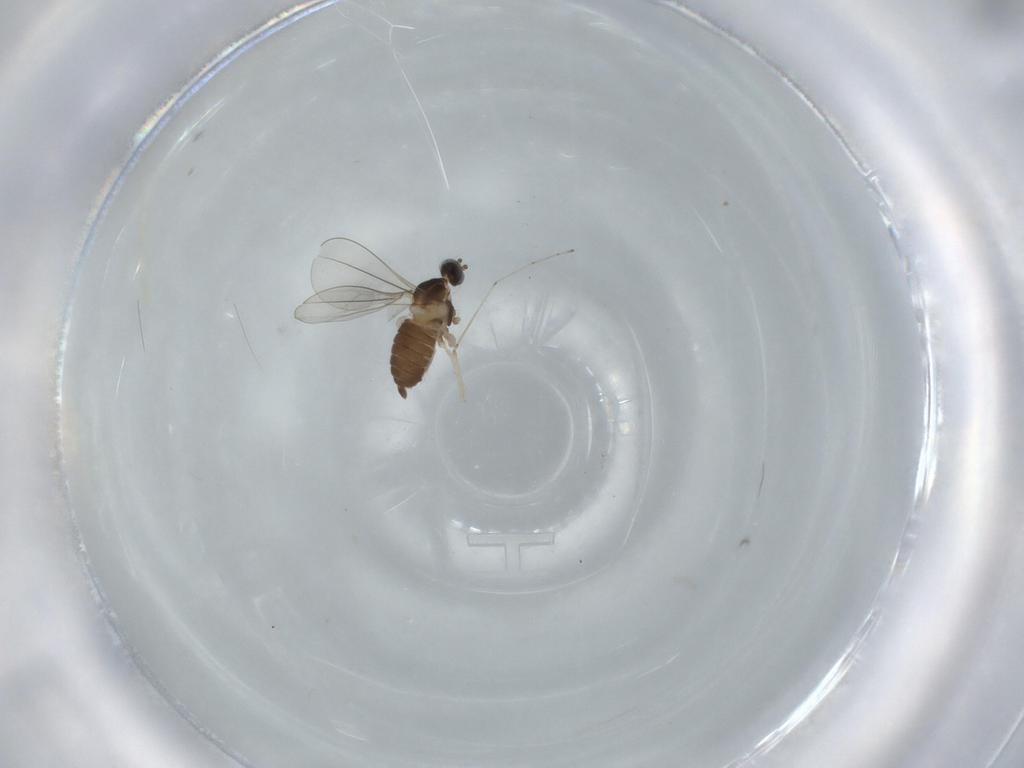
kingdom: Animalia
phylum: Arthropoda
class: Insecta
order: Diptera
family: Cecidomyiidae
